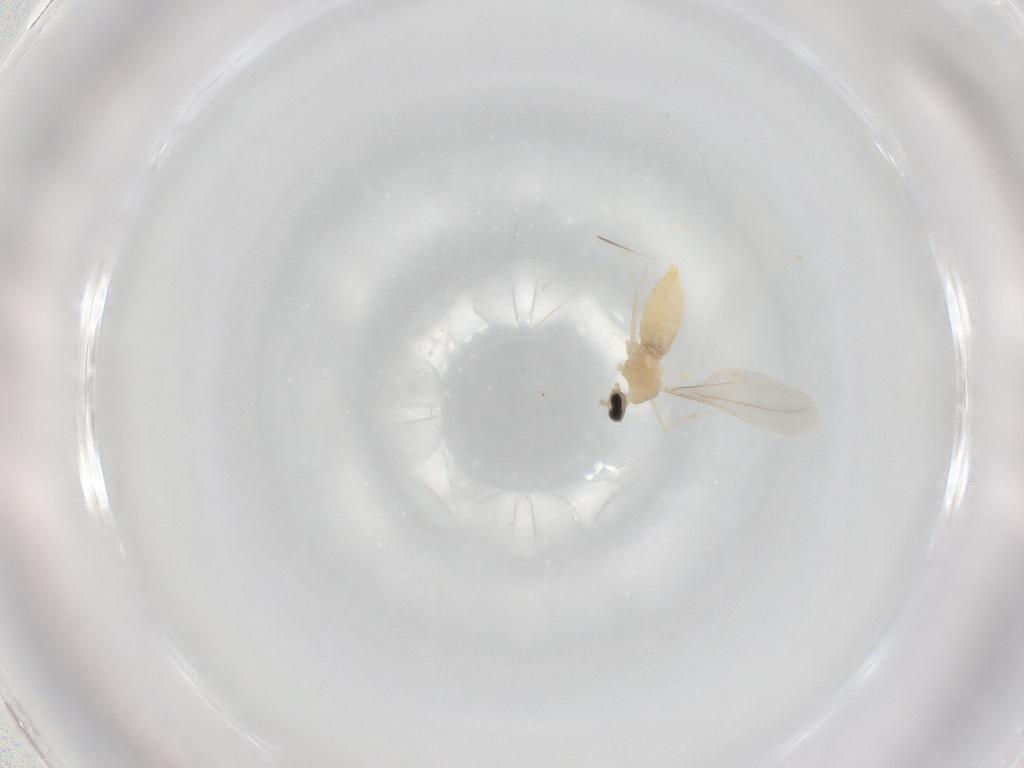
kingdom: Animalia
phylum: Arthropoda
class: Insecta
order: Diptera
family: Cecidomyiidae
